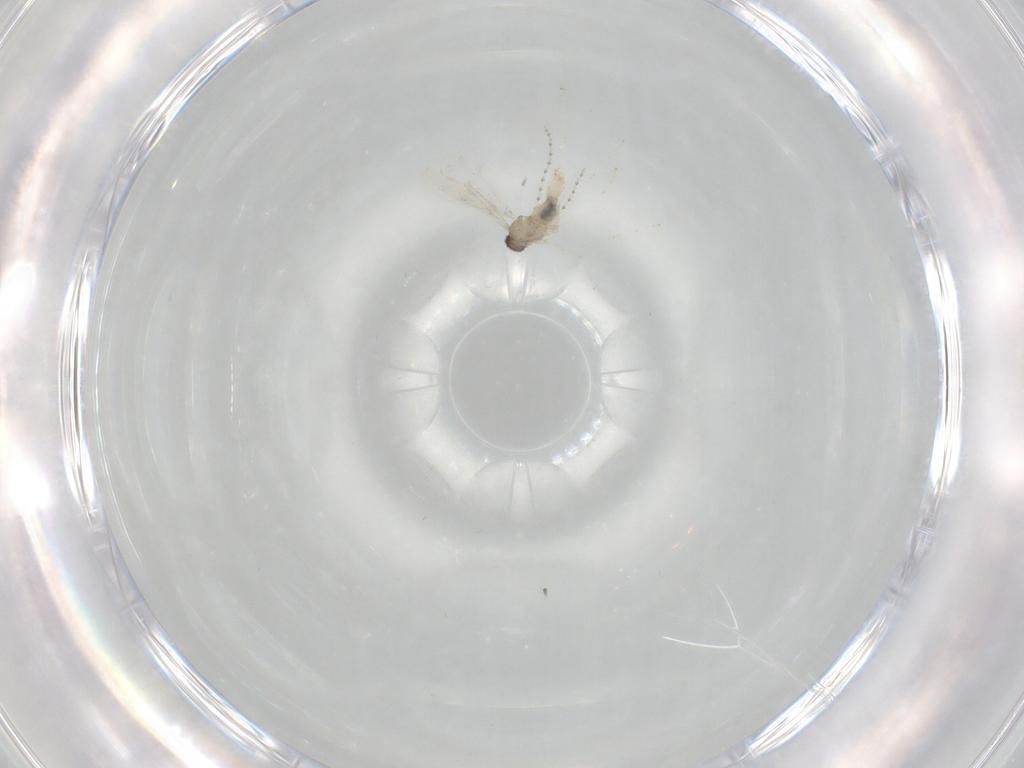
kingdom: Animalia
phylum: Arthropoda
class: Insecta
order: Diptera
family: Cecidomyiidae
